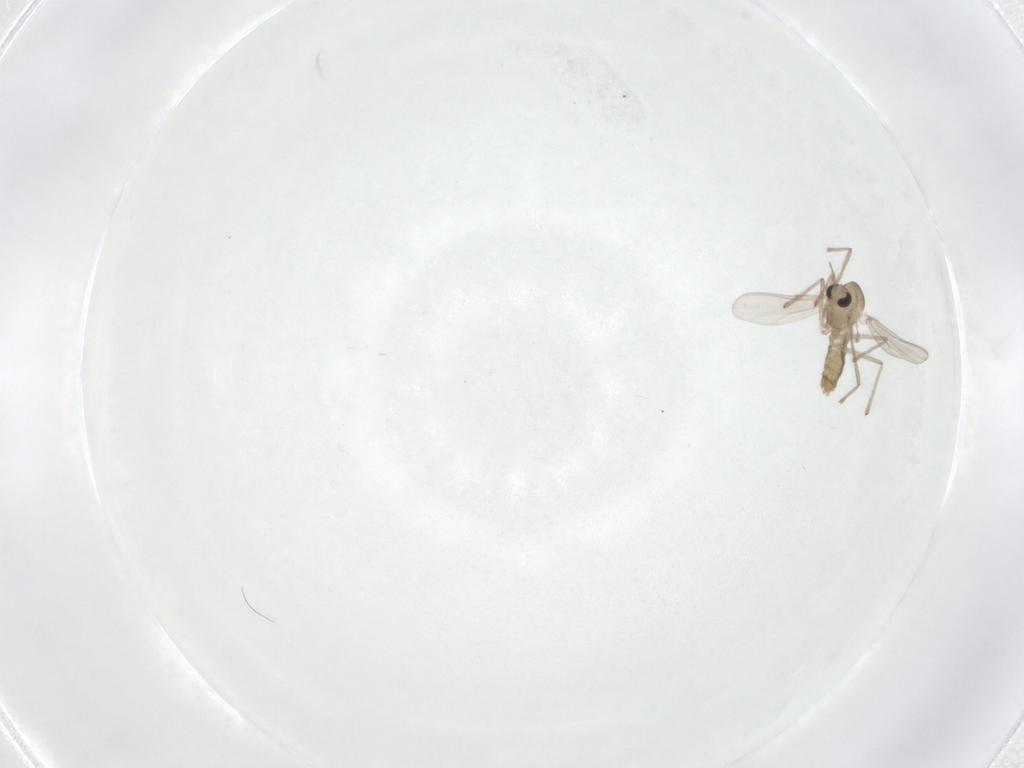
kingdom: Animalia
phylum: Arthropoda
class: Insecta
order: Diptera
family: Chironomidae
